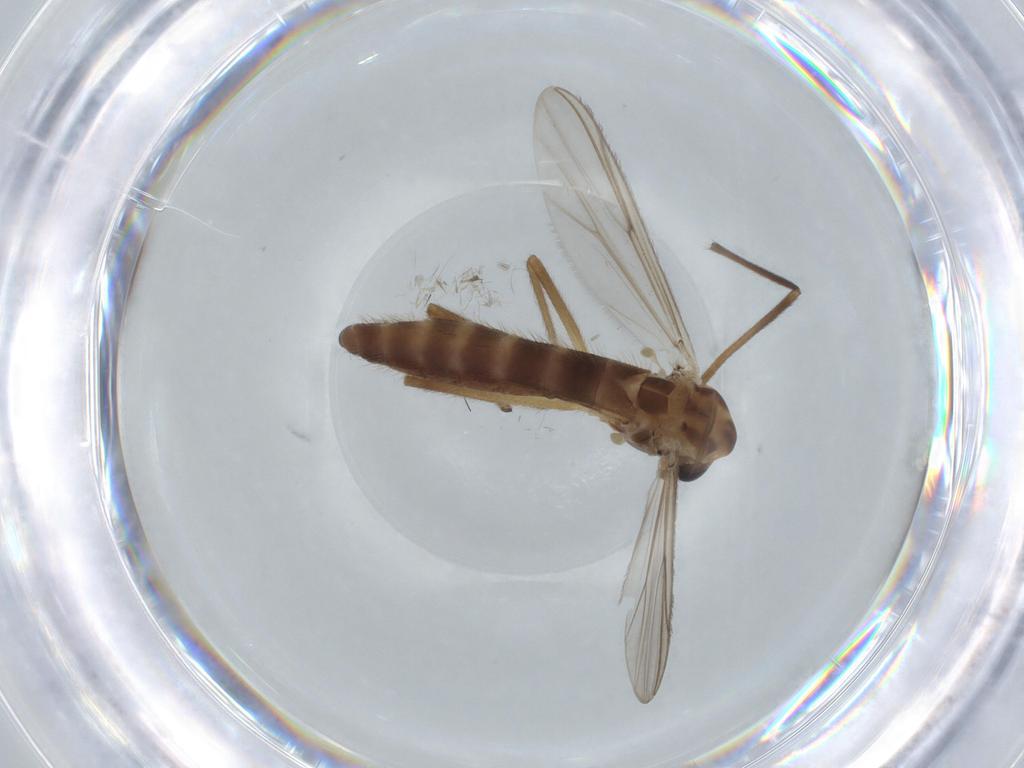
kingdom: Animalia
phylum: Arthropoda
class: Insecta
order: Diptera
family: Chironomidae
